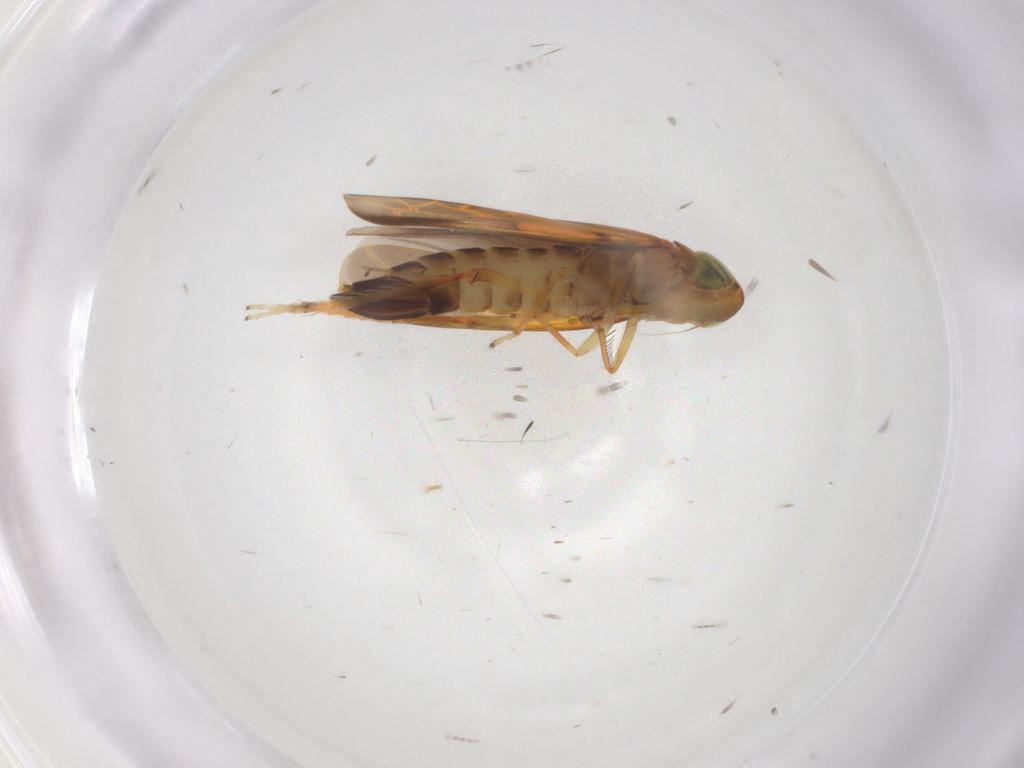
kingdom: Animalia
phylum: Arthropoda
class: Insecta
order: Hemiptera
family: Cicadellidae
